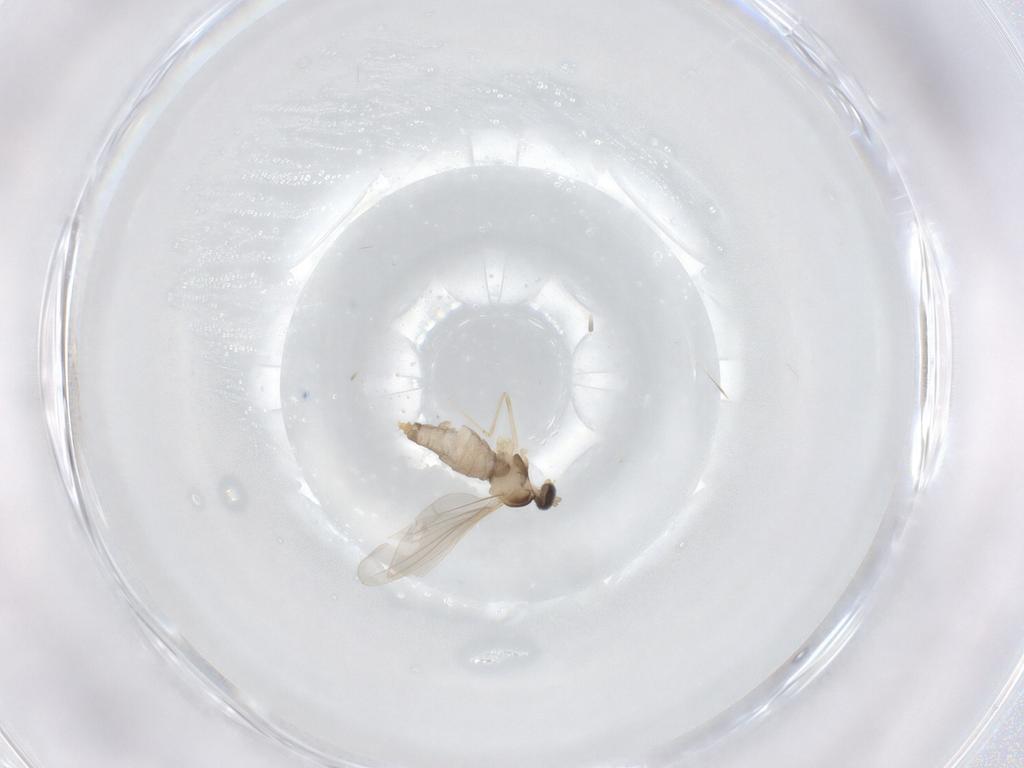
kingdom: Animalia
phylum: Arthropoda
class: Insecta
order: Diptera
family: Cecidomyiidae
